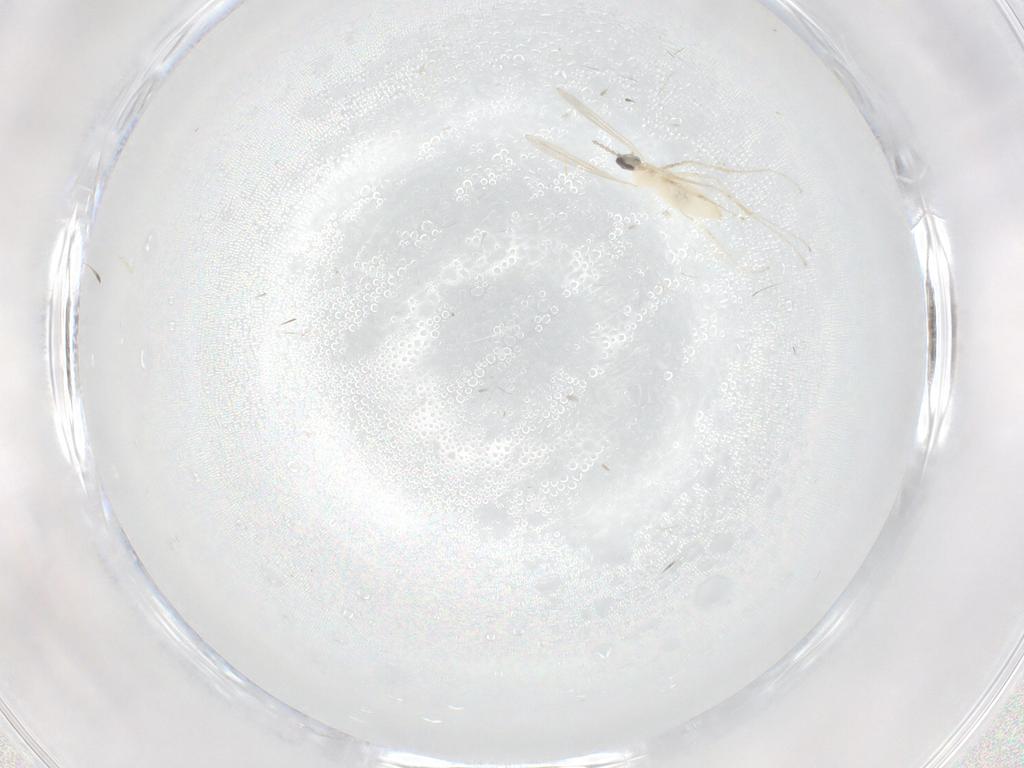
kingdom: Animalia
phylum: Arthropoda
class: Insecta
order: Diptera
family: Cecidomyiidae
